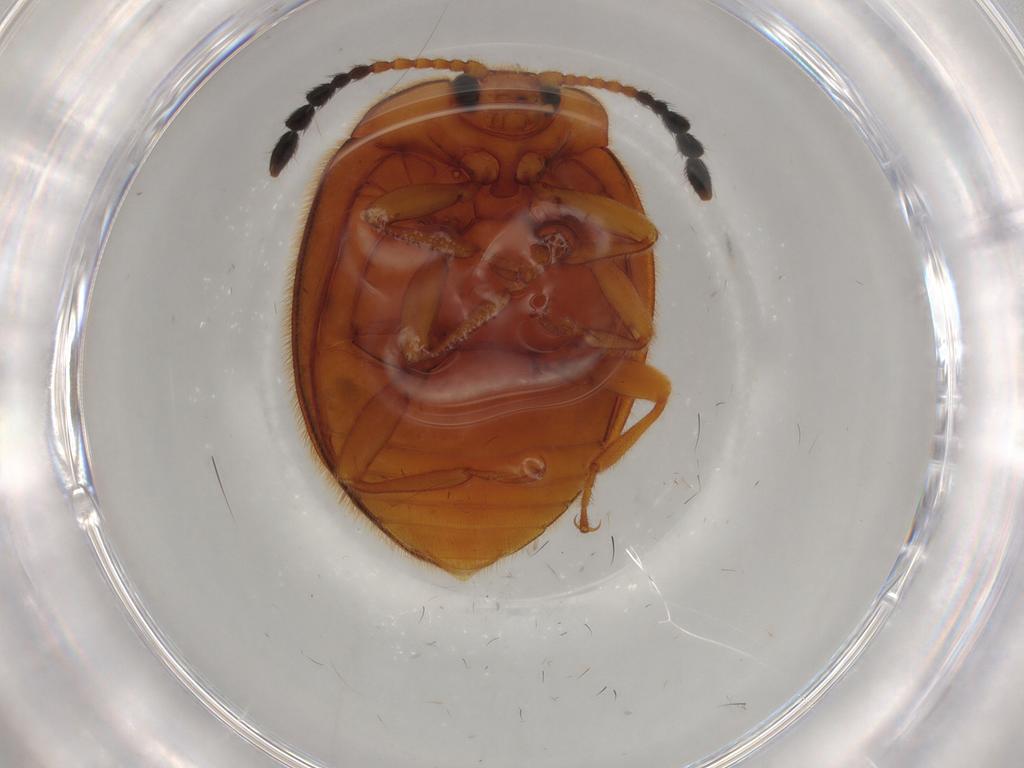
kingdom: Animalia
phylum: Arthropoda
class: Insecta
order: Coleoptera
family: Endomychidae
